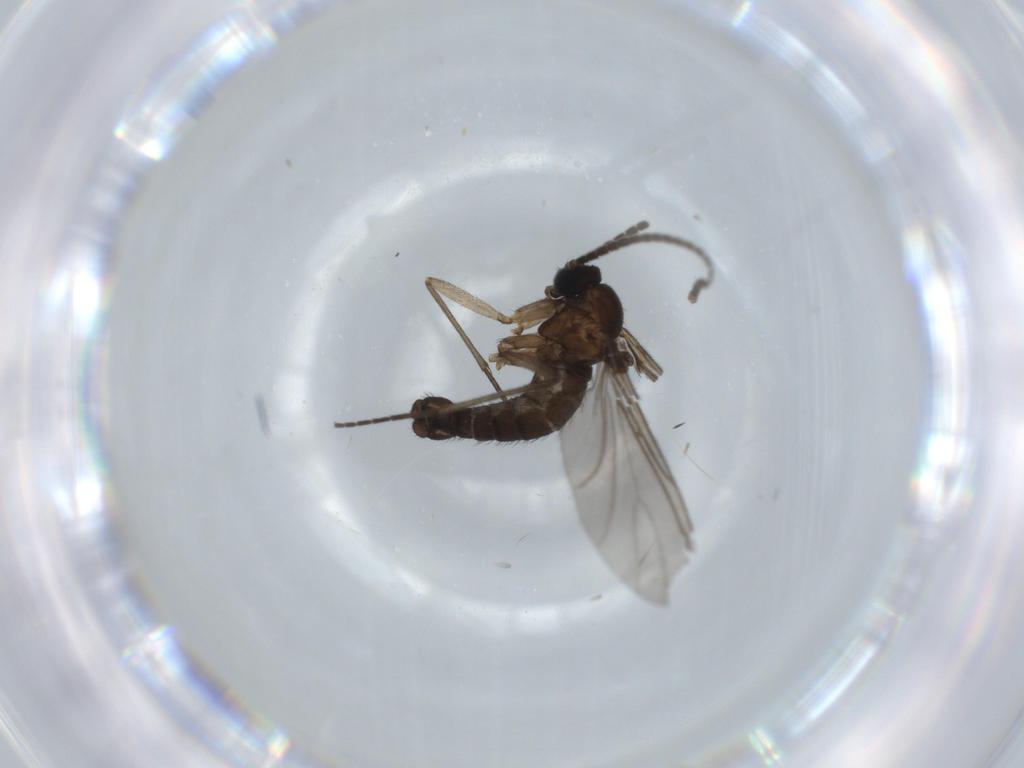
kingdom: Animalia
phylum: Arthropoda
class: Insecta
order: Diptera
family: Sciaridae
